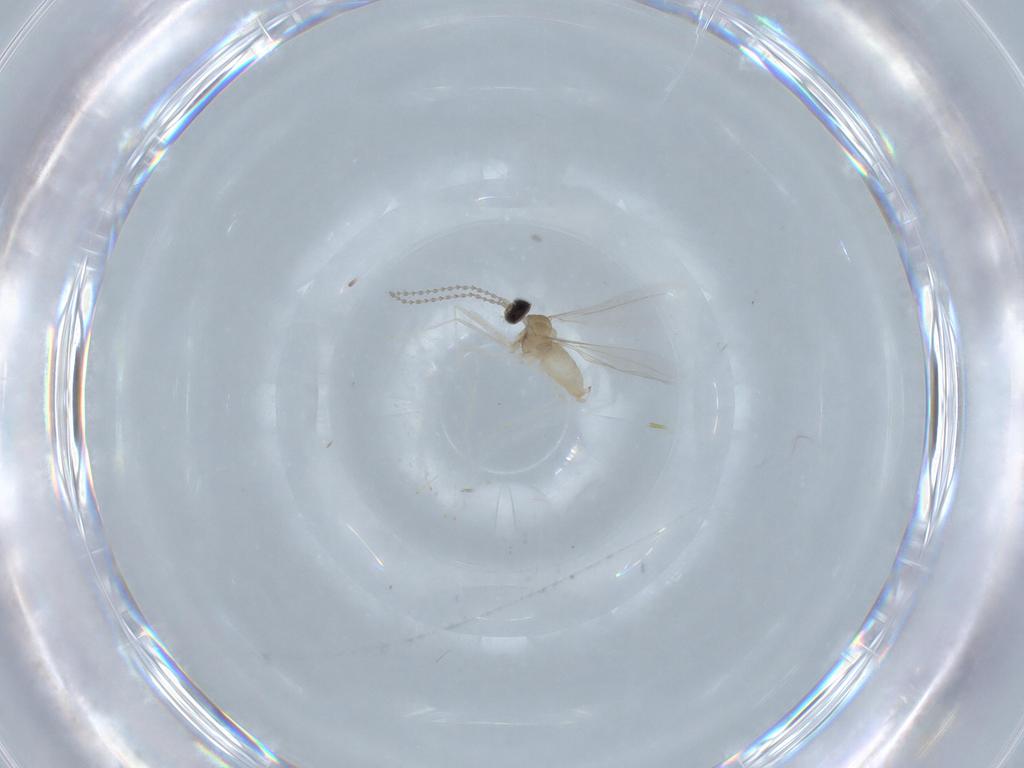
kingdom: Animalia
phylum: Arthropoda
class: Insecta
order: Diptera
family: Cecidomyiidae
